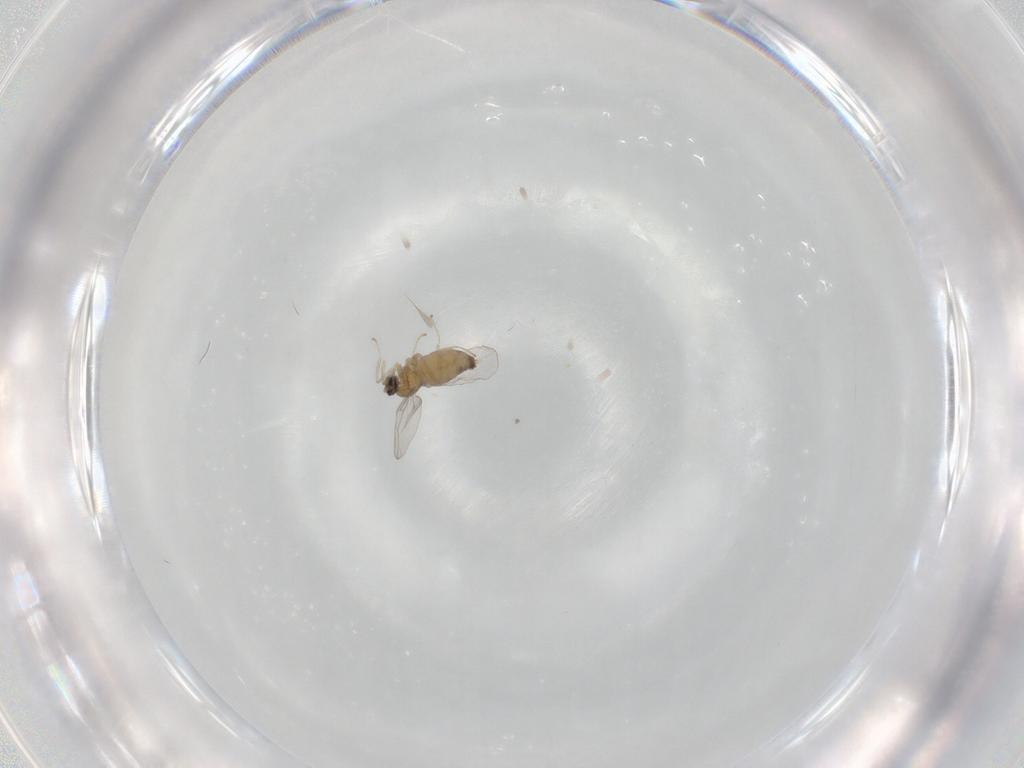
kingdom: Animalia
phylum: Arthropoda
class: Insecta
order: Diptera
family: Cecidomyiidae
